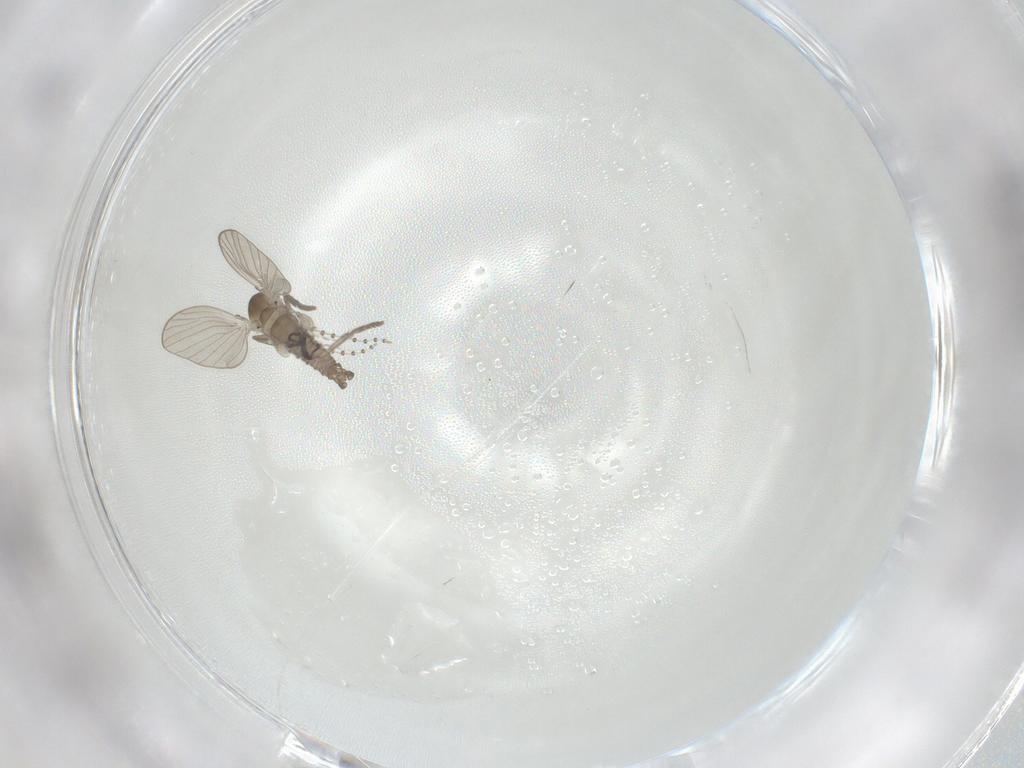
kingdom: Animalia
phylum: Arthropoda
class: Insecta
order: Diptera
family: Psychodidae
